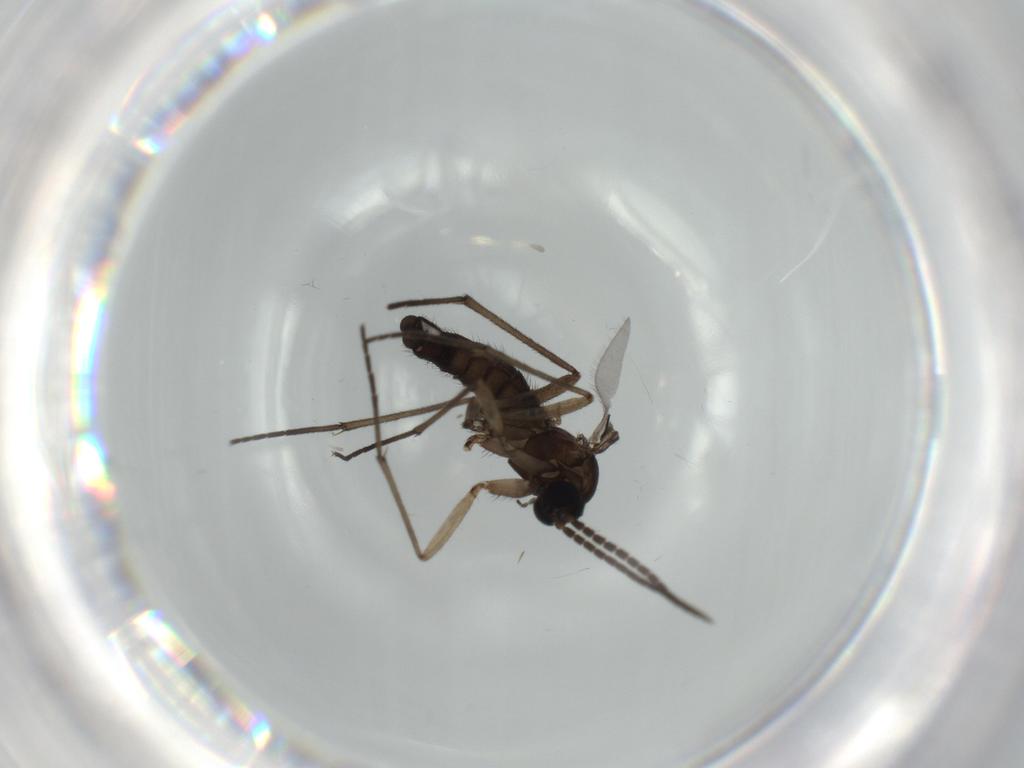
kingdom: Animalia
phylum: Arthropoda
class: Insecta
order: Diptera
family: Sciaridae
